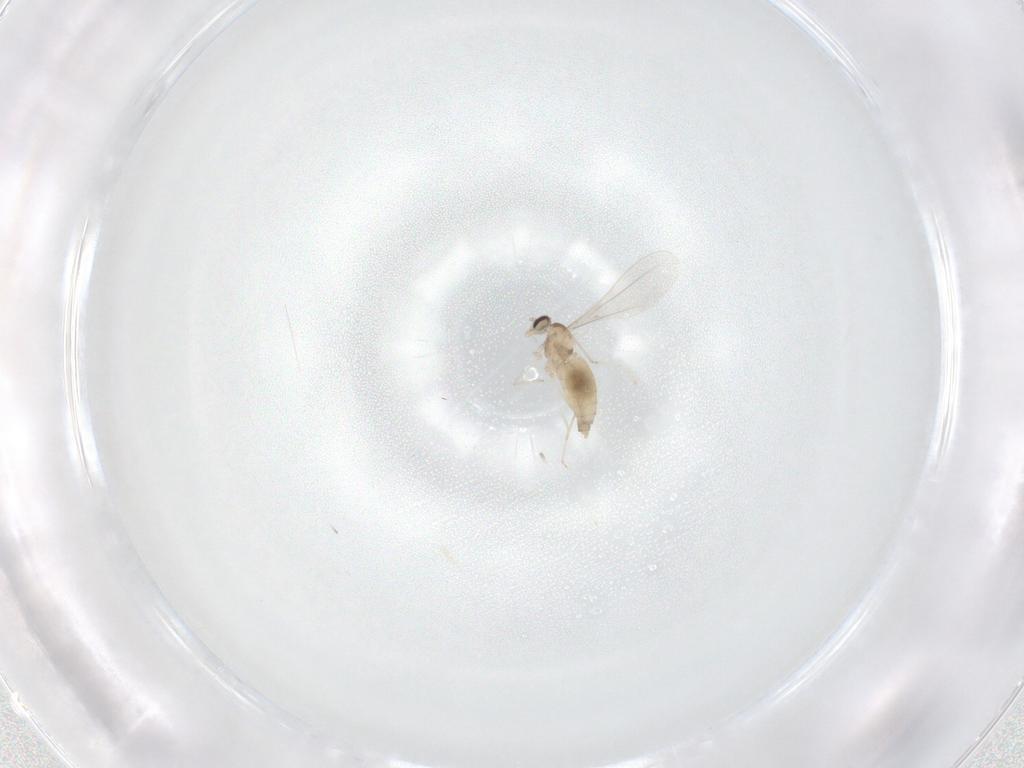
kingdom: Animalia
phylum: Arthropoda
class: Insecta
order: Diptera
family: Cecidomyiidae
